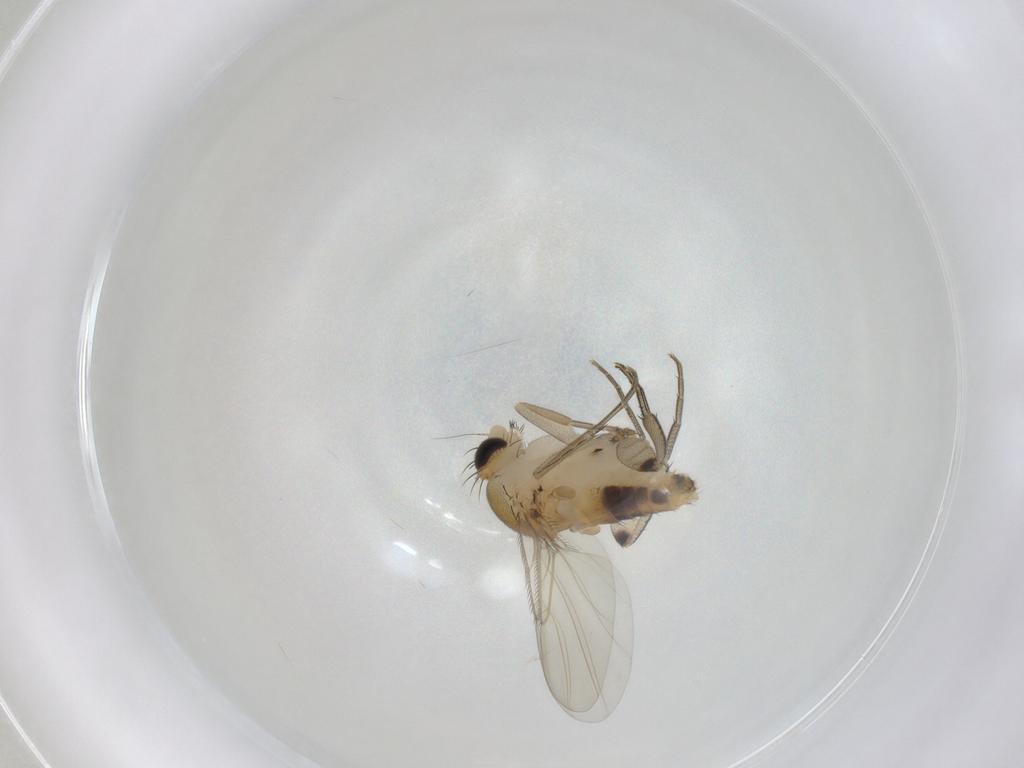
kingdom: Animalia
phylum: Arthropoda
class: Insecta
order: Diptera
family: Phoridae
